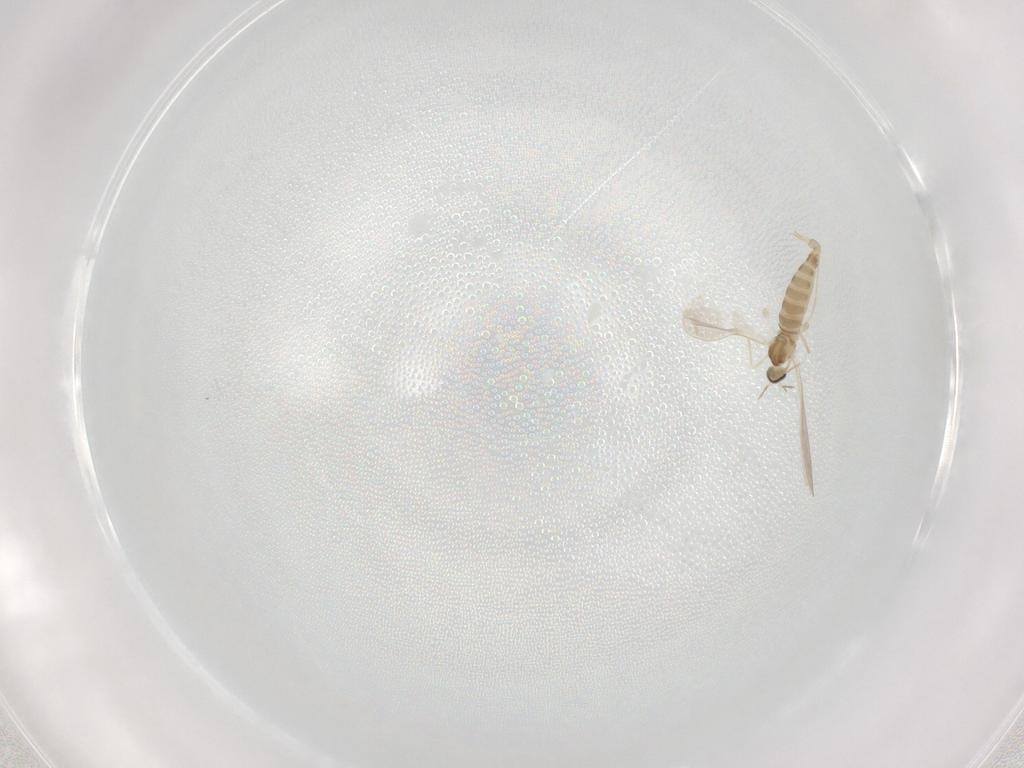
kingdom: Animalia
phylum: Arthropoda
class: Insecta
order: Diptera
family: Cecidomyiidae
